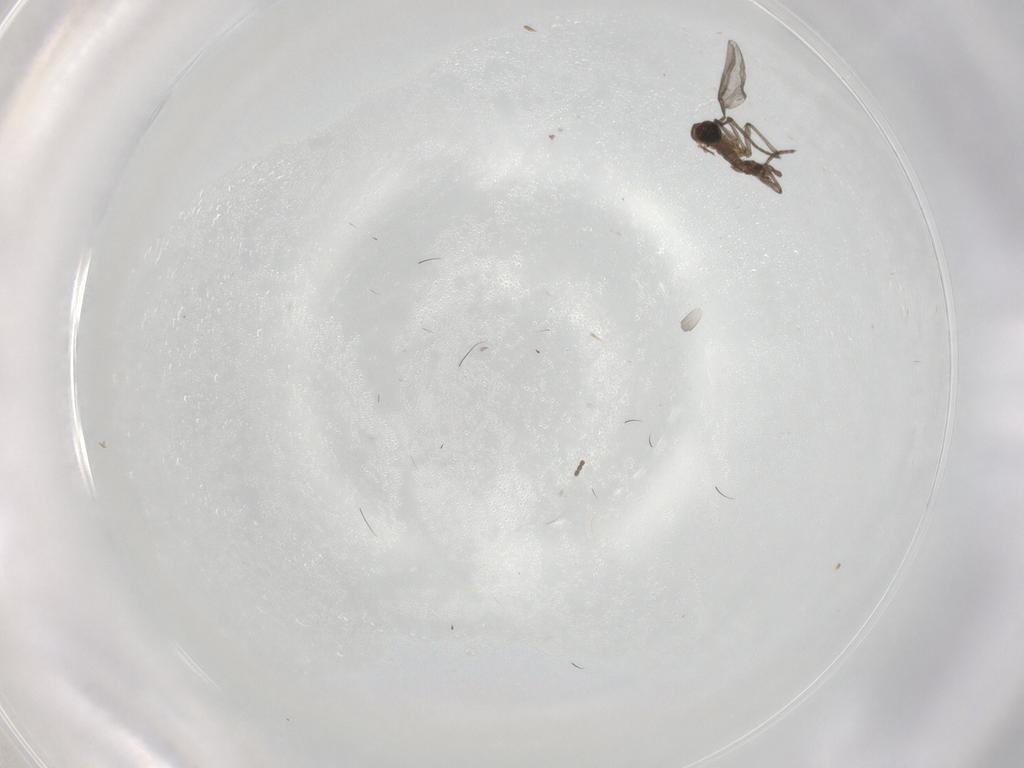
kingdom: Animalia
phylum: Arthropoda
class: Insecta
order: Diptera
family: Sciaridae
